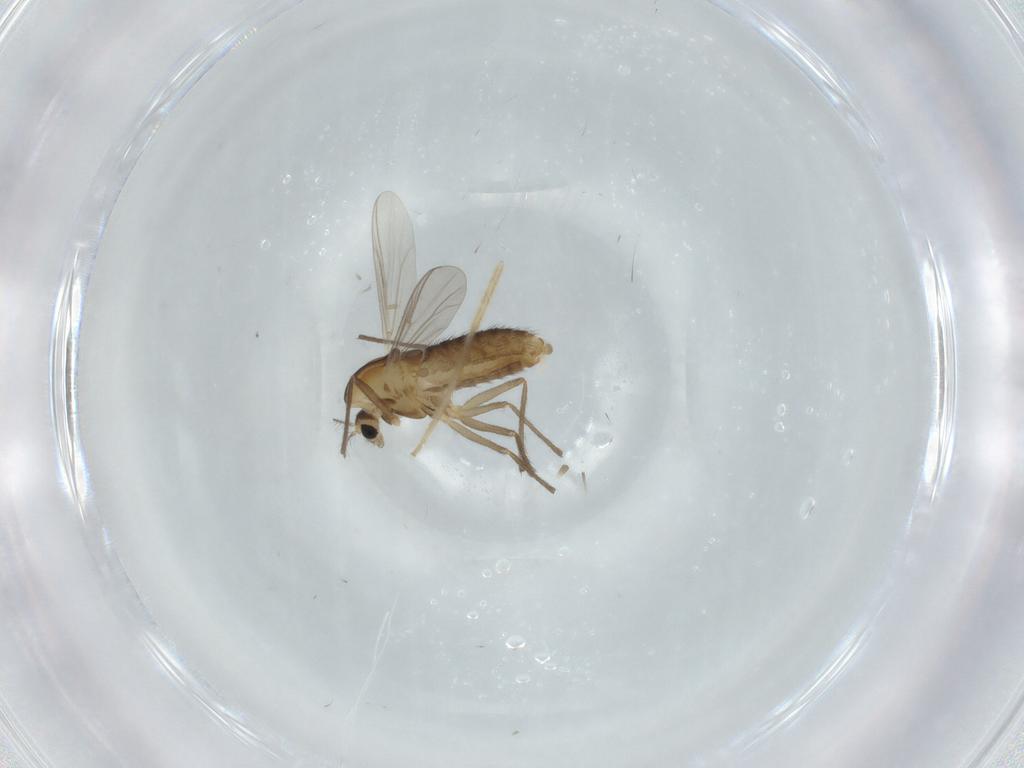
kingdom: Animalia
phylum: Arthropoda
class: Insecta
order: Diptera
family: Chironomidae
